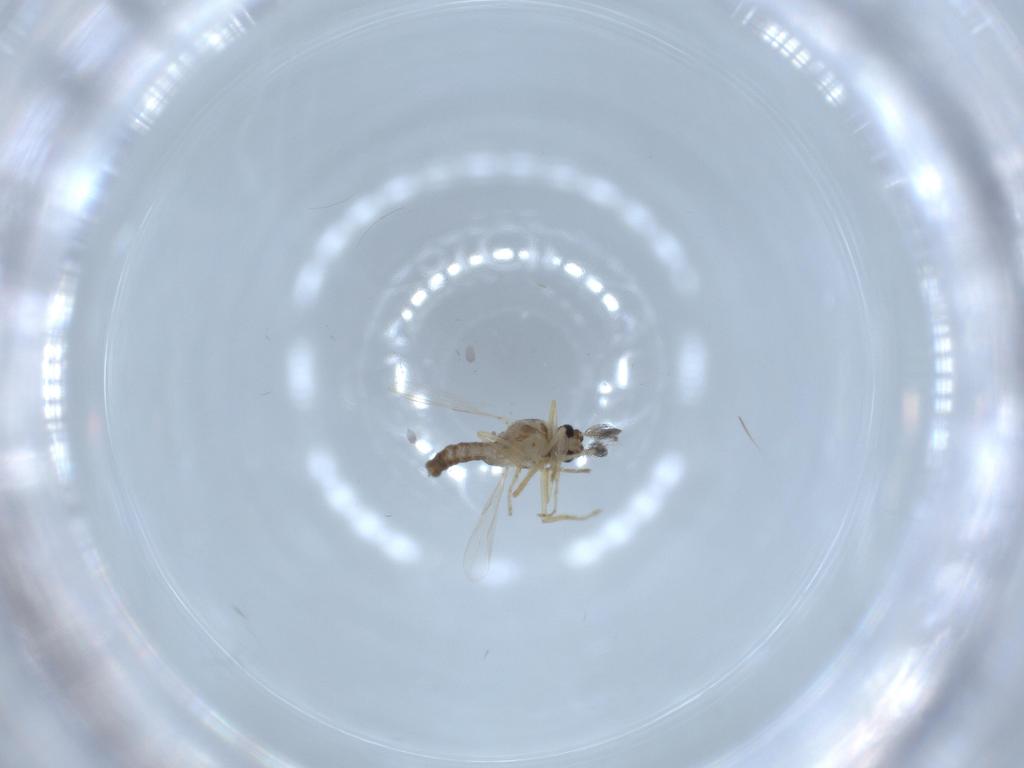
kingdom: Animalia
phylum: Arthropoda
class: Insecta
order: Diptera
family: Ceratopogonidae
